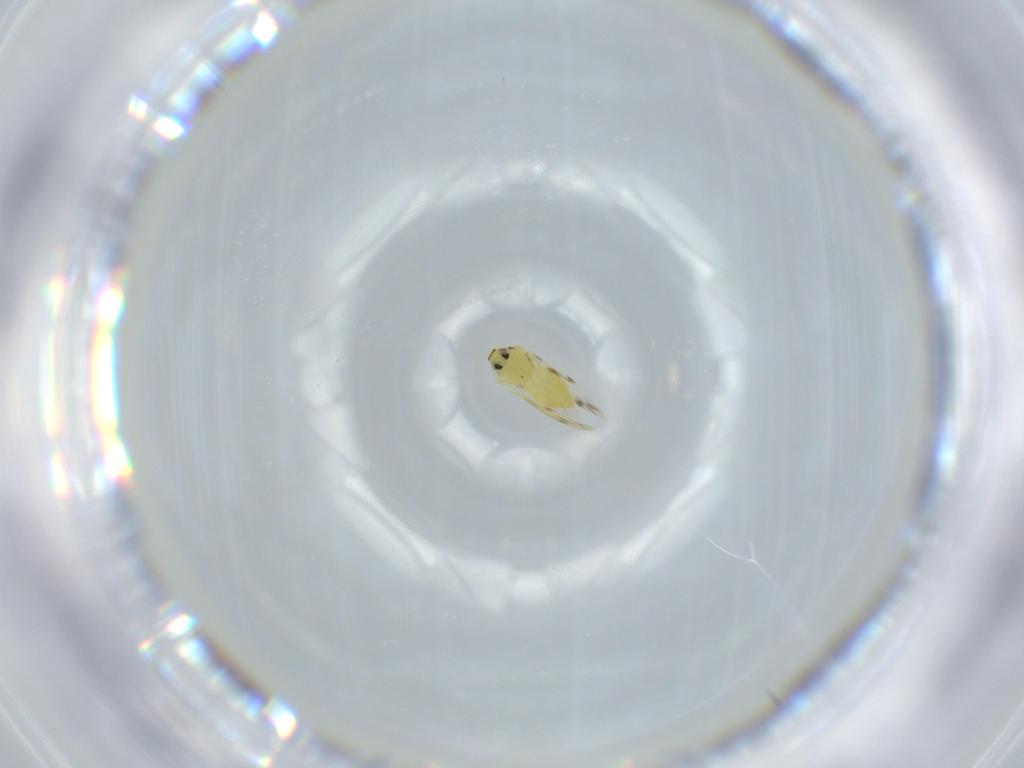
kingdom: Animalia
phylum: Arthropoda
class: Insecta
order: Hemiptera
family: Aleyrodidae
